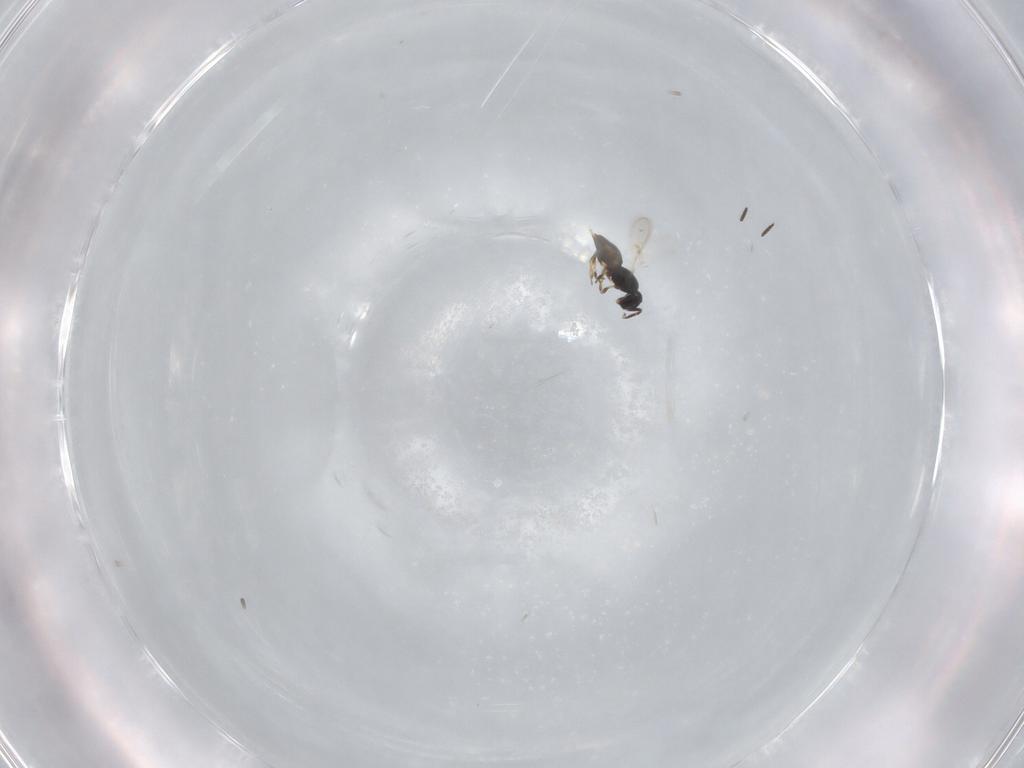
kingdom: Animalia
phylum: Arthropoda
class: Insecta
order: Hymenoptera
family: Scelionidae
